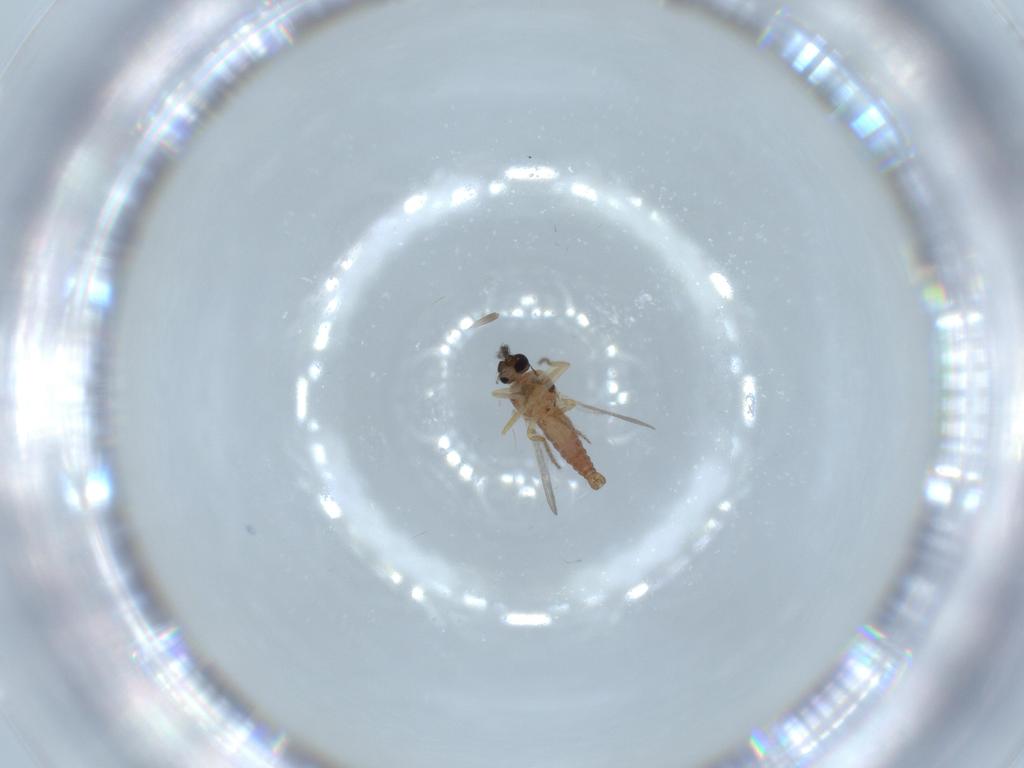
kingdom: Animalia
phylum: Arthropoda
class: Insecta
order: Diptera
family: Ceratopogonidae
